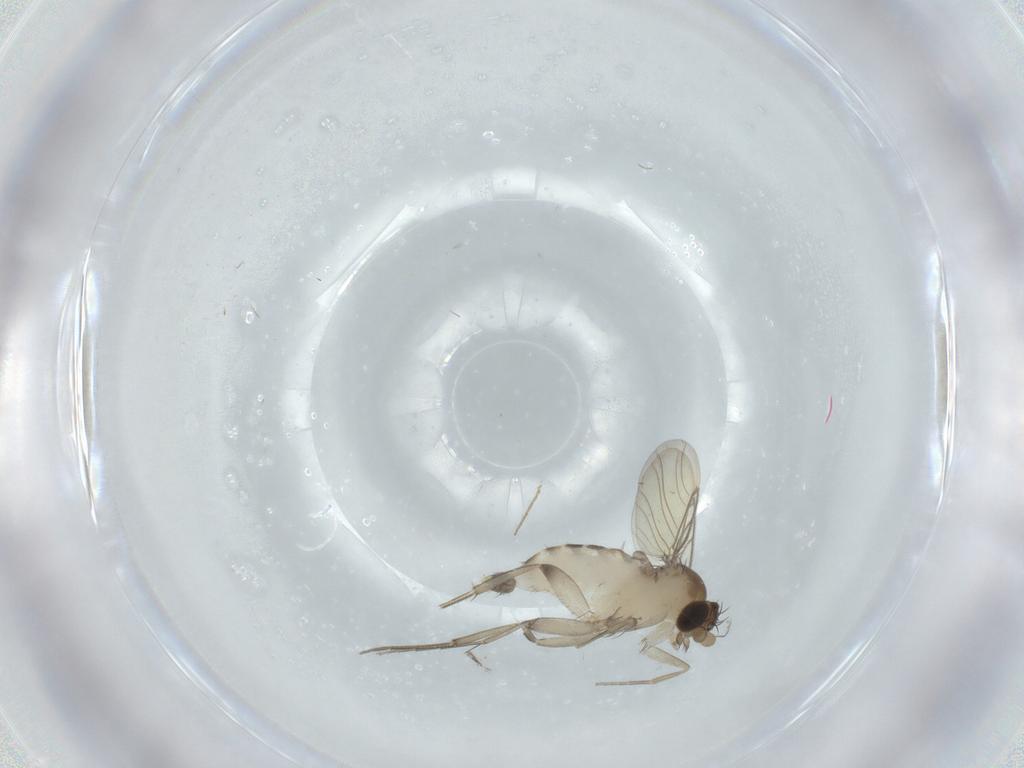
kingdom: Animalia
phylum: Arthropoda
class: Insecta
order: Diptera
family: Phoridae
